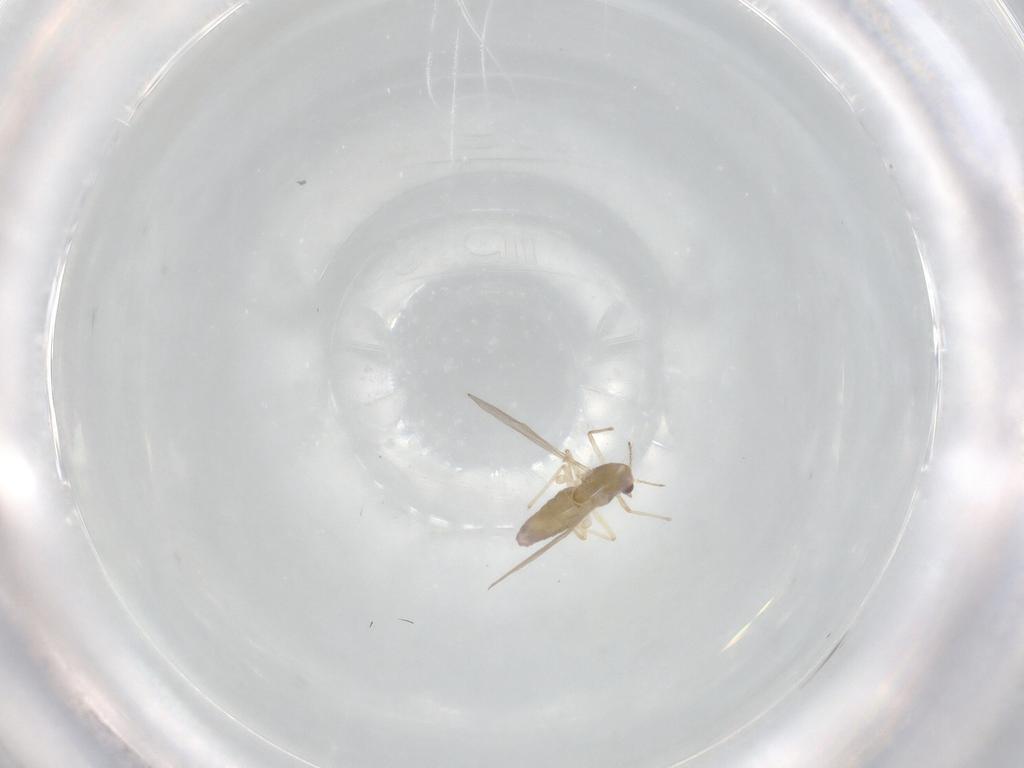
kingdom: Animalia
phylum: Arthropoda
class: Insecta
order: Diptera
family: Chironomidae
